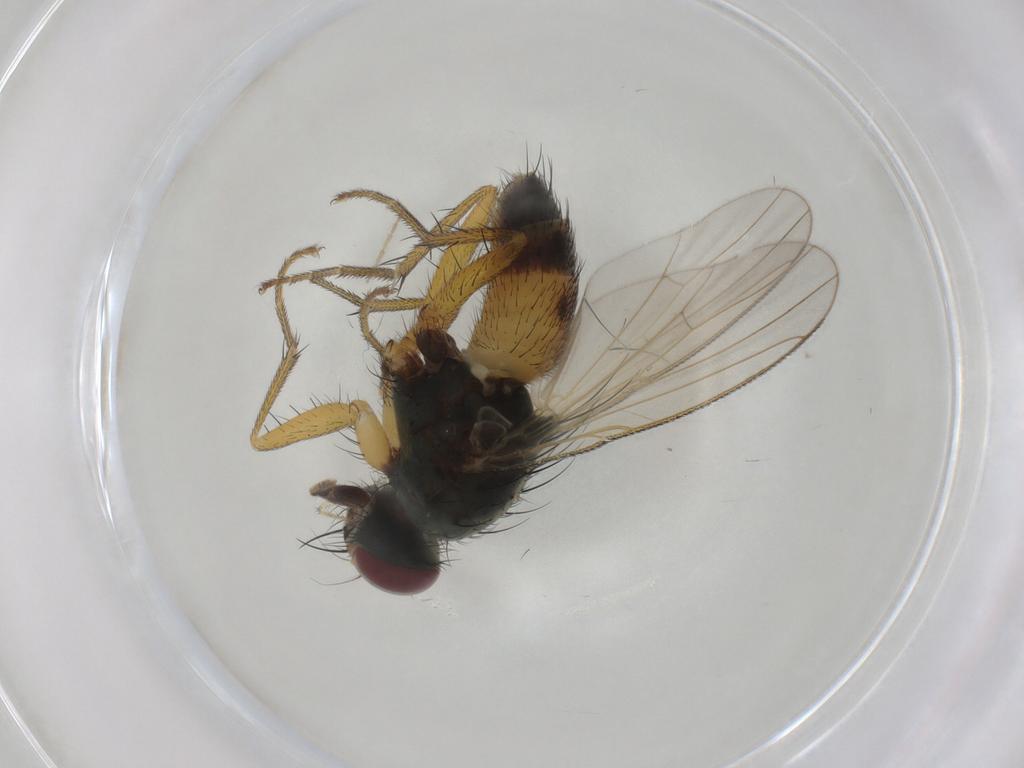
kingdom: Animalia
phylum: Arthropoda
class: Insecta
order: Diptera
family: Muscidae
